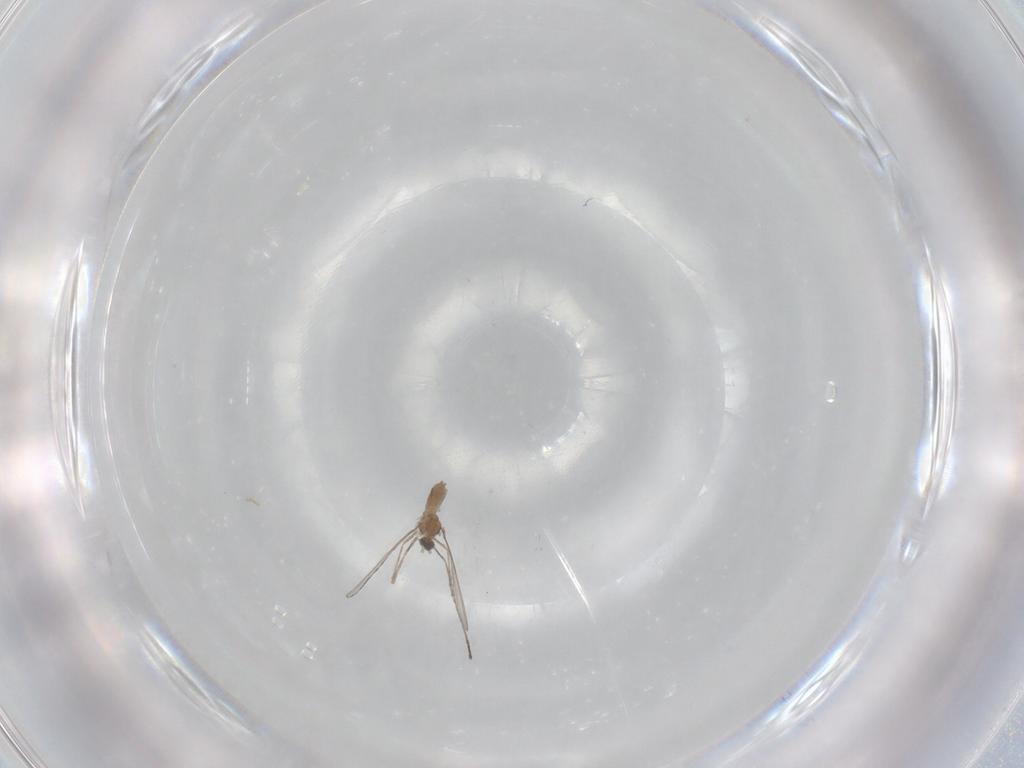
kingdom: Animalia
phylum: Arthropoda
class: Insecta
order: Diptera
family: Cecidomyiidae
